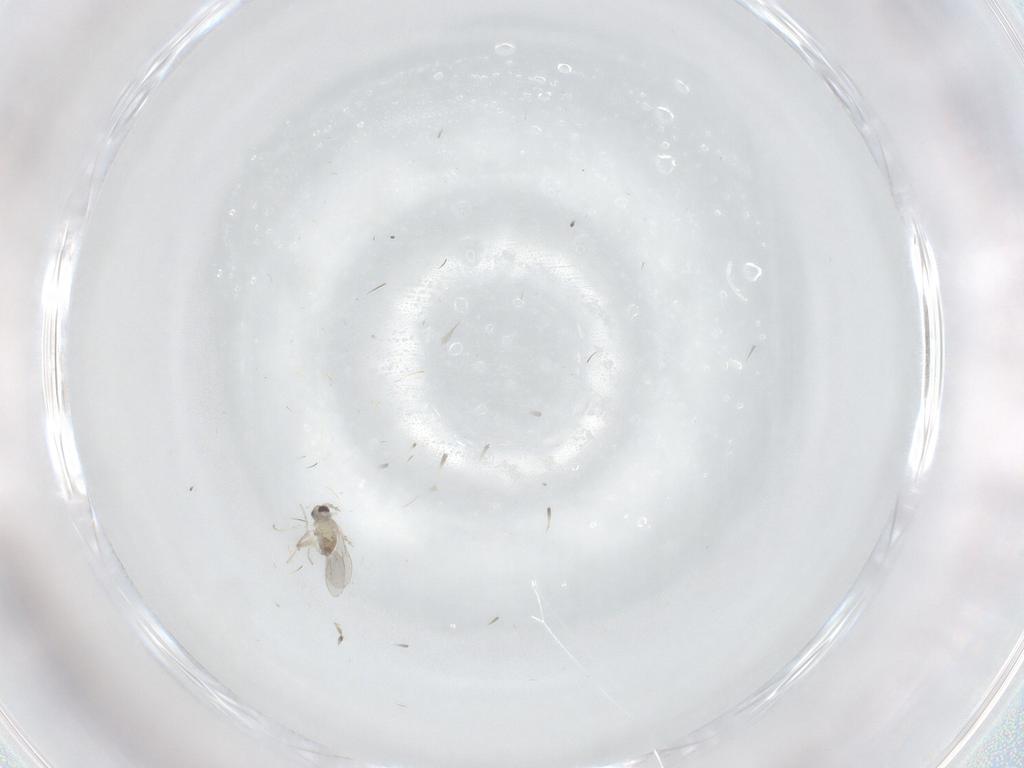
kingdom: Animalia
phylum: Arthropoda
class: Insecta
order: Diptera
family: Cecidomyiidae
